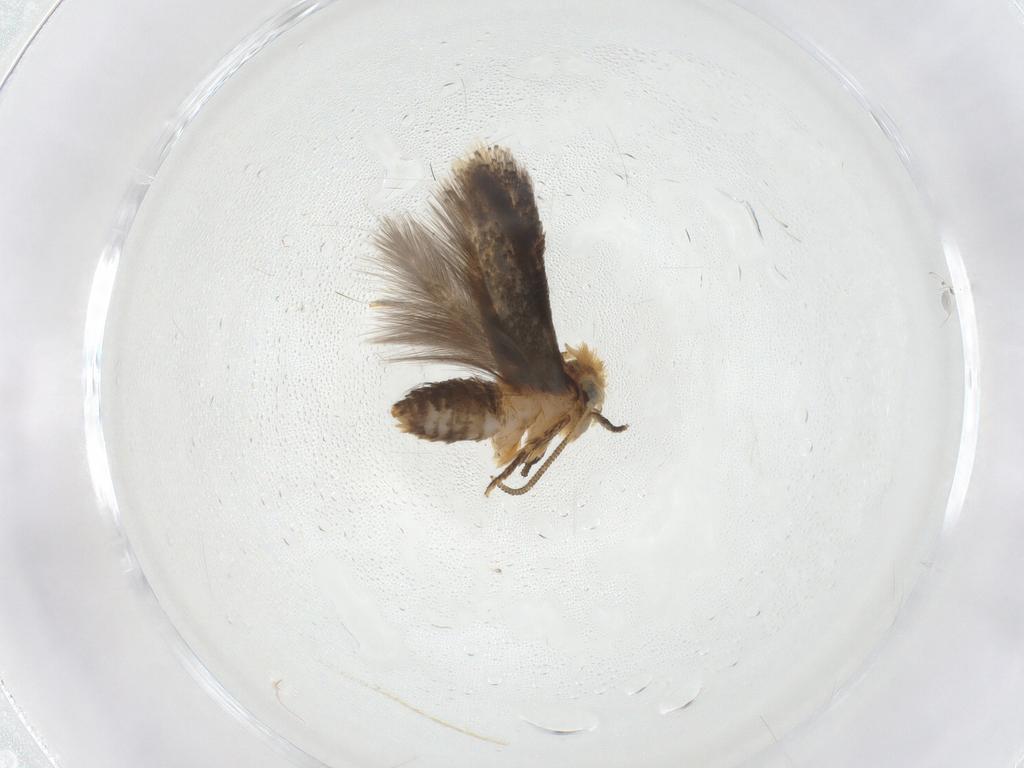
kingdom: Animalia
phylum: Arthropoda
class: Insecta
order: Lepidoptera
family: Nepticulidae
